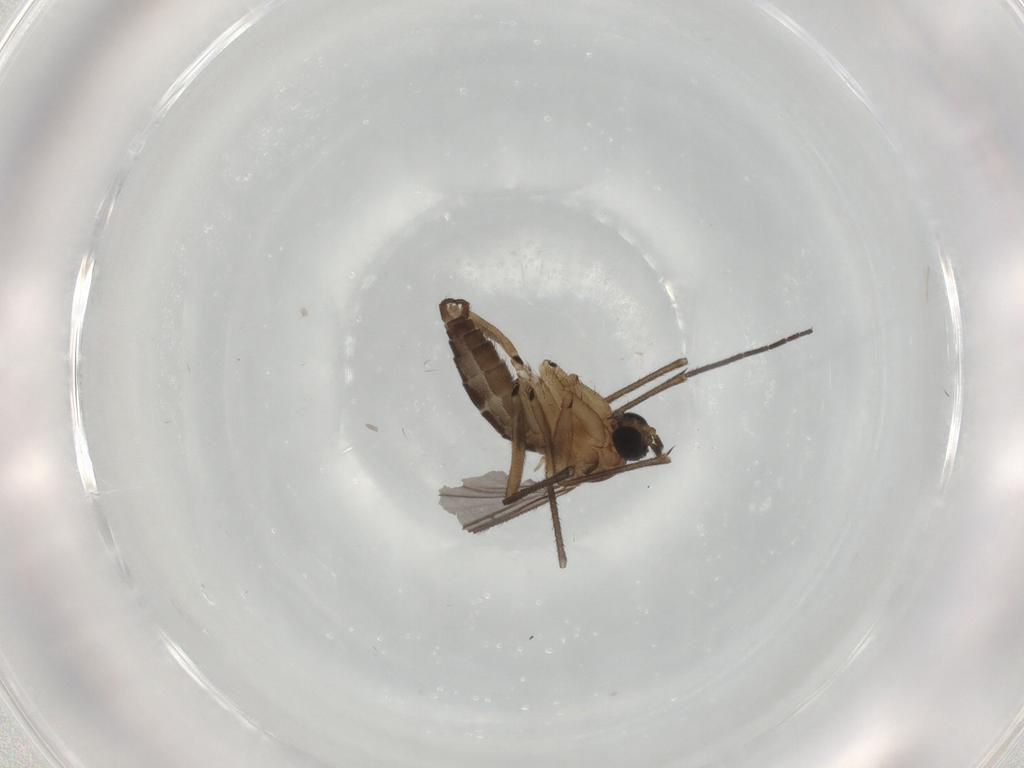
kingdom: Animalia
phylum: Arthropoda
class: Insecta
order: Diptera
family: Sciaridae
